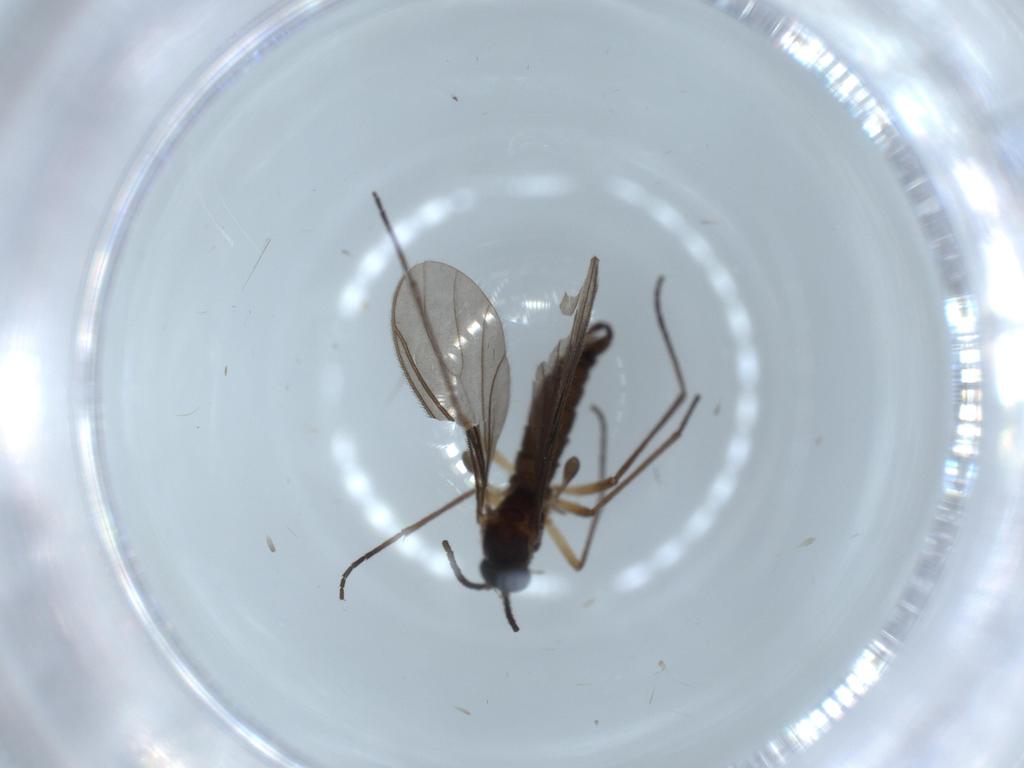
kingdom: Animalia
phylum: Arthropoda
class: Insecta
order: Diptera
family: Sciaridae
